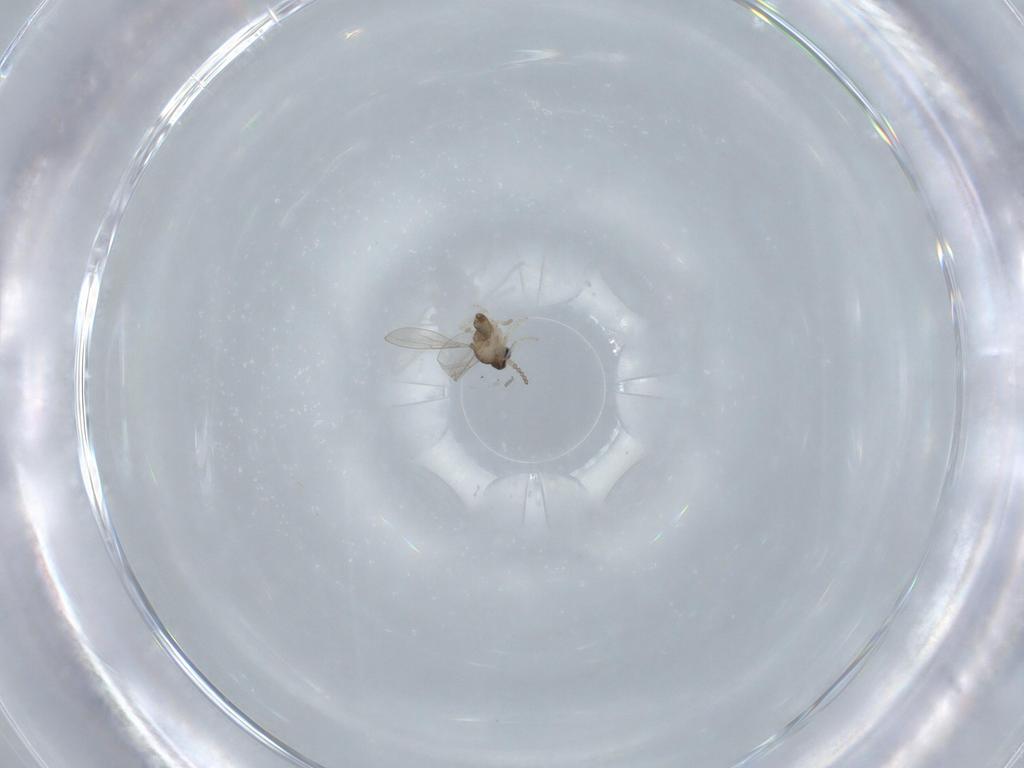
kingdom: Animalia
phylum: Arthropoda
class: Insecta
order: Diptera
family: Cecidomyiidae
